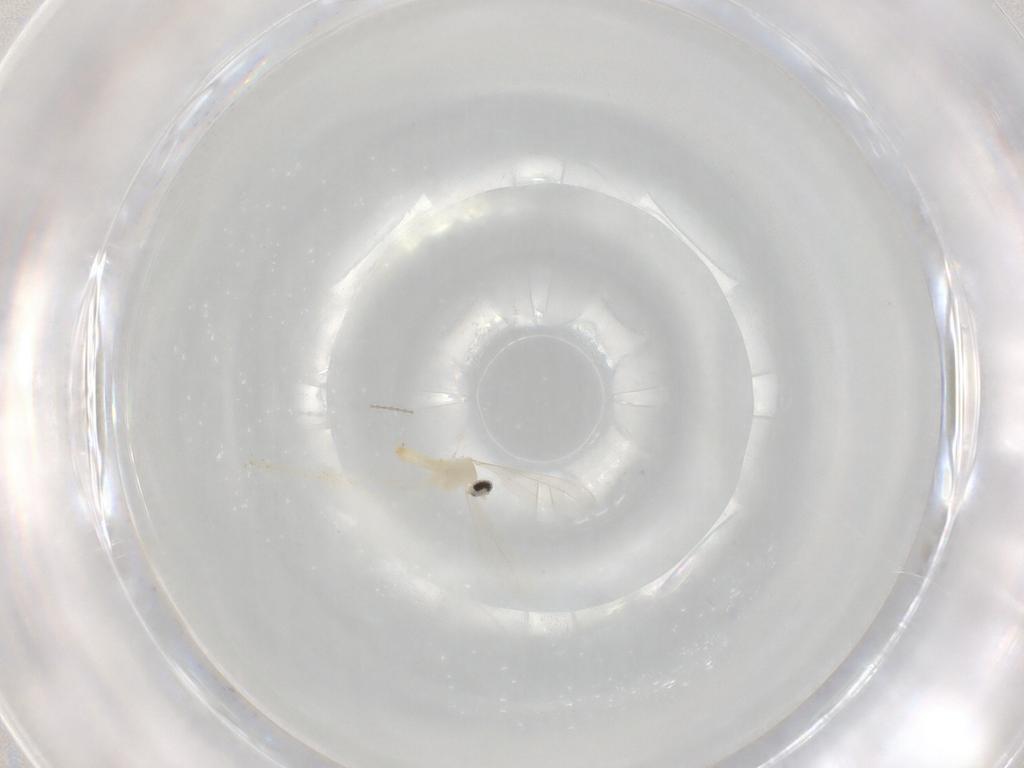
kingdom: Animalia
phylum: Arthropoda
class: Insecta
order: Diptera
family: Cecidomyiidae
